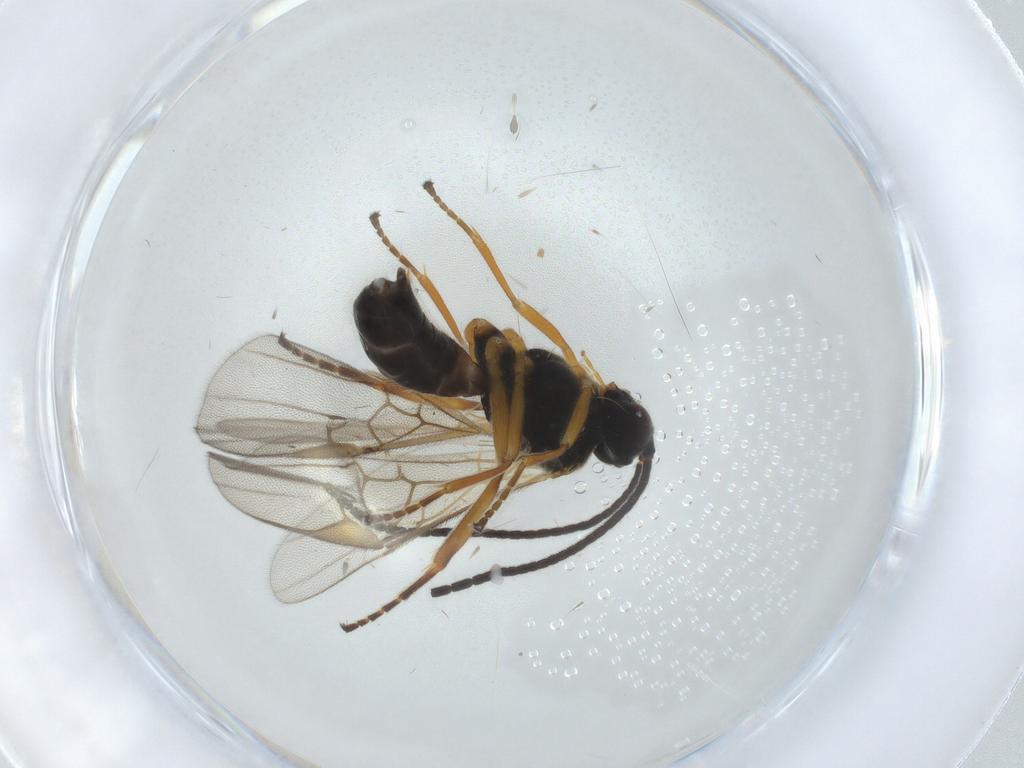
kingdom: Animalia
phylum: Arthropoda
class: Insecta
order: Hymenoptera
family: Braconidae
